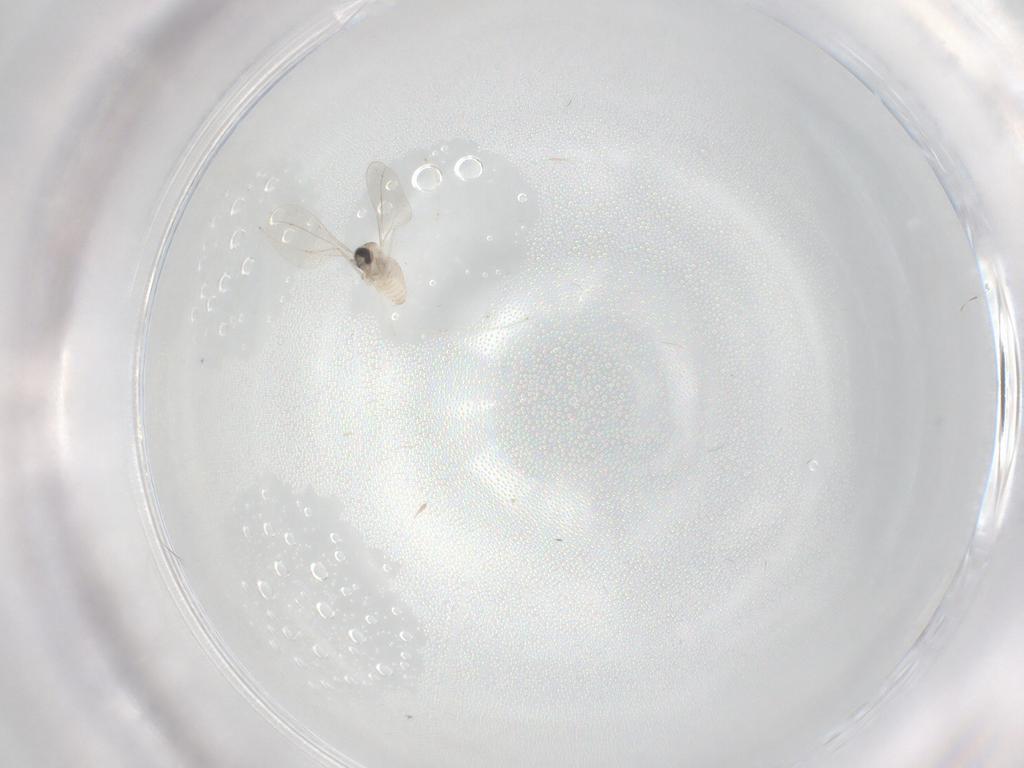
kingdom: Animalia
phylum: Arthropoda
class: Insecta
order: Diptera
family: Cecidomyiidae
